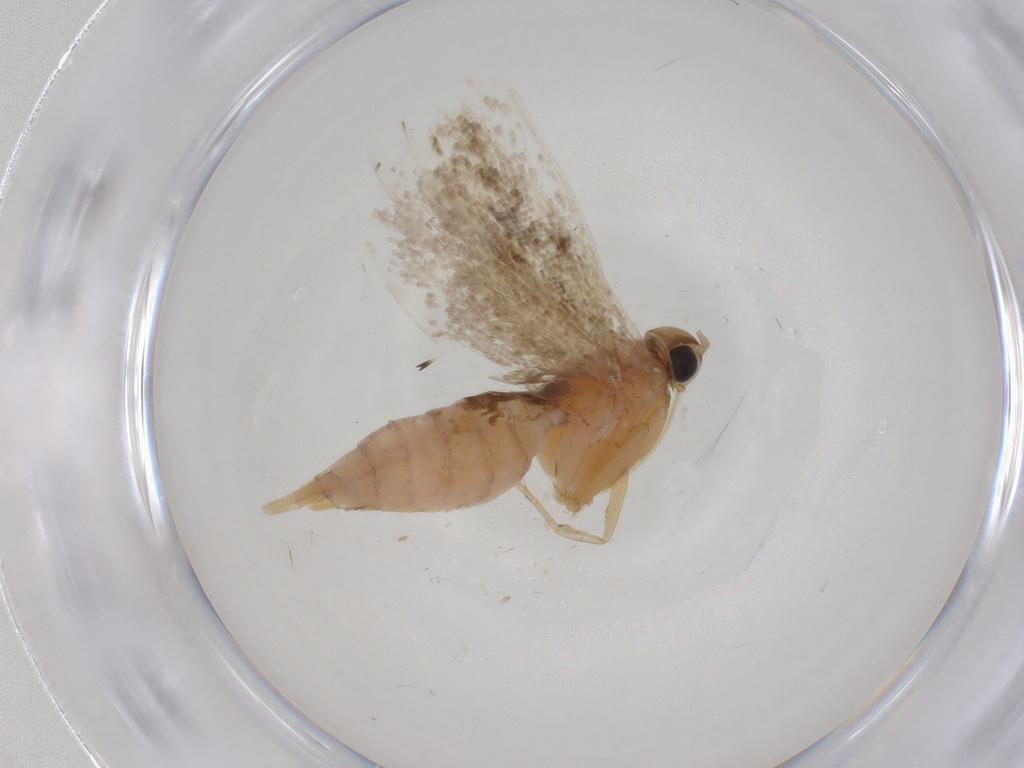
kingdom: Animalia
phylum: Arthropoda
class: Insecta
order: Lepidoptera
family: Gelechiidae
